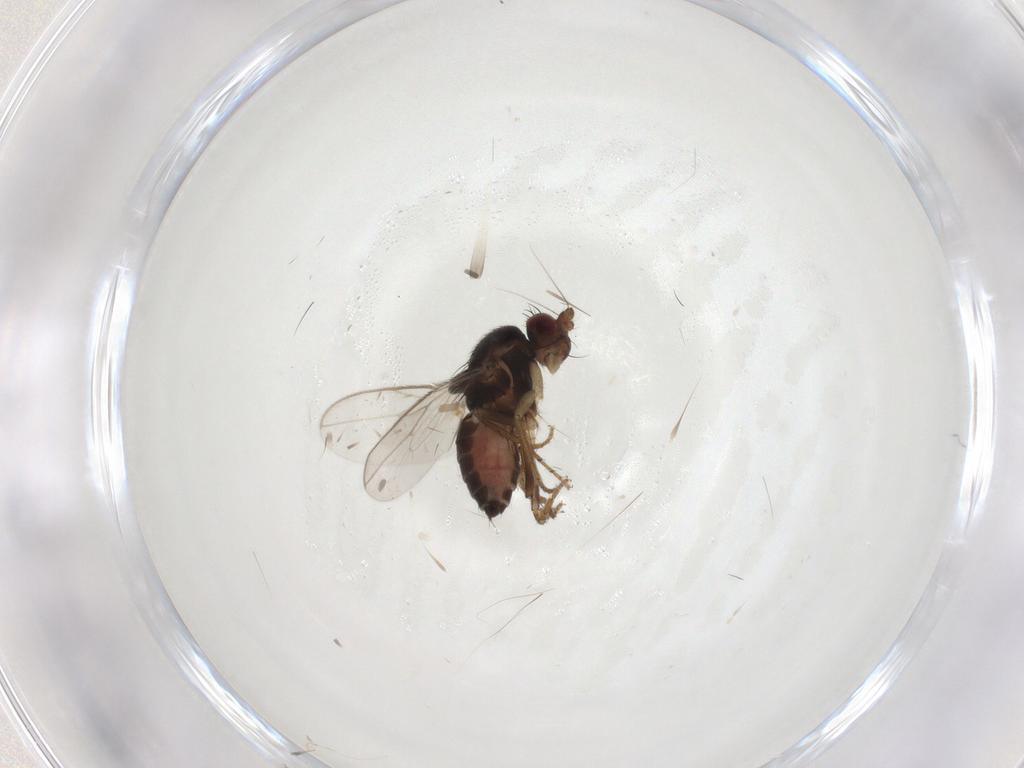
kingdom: Animalia
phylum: Arthropoda
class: Insecta
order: Diptera
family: Sphaeroceridae
